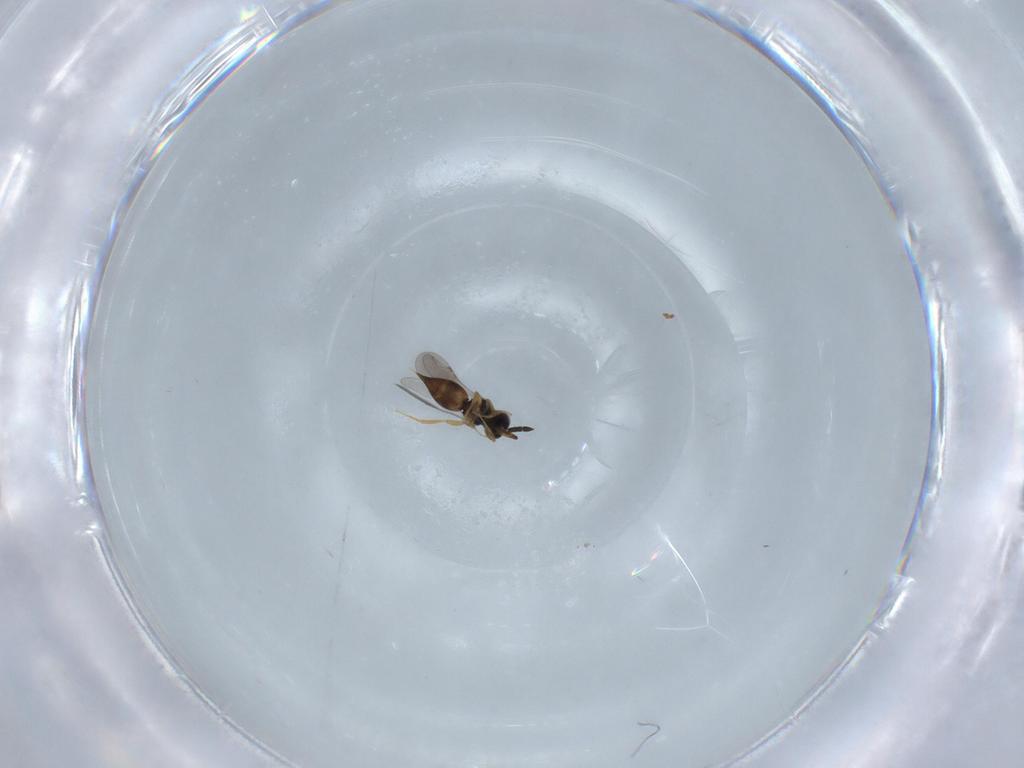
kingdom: Animalia
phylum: Arthropoda
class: Insecta
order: Hymenoptera
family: Ceraphronidae
